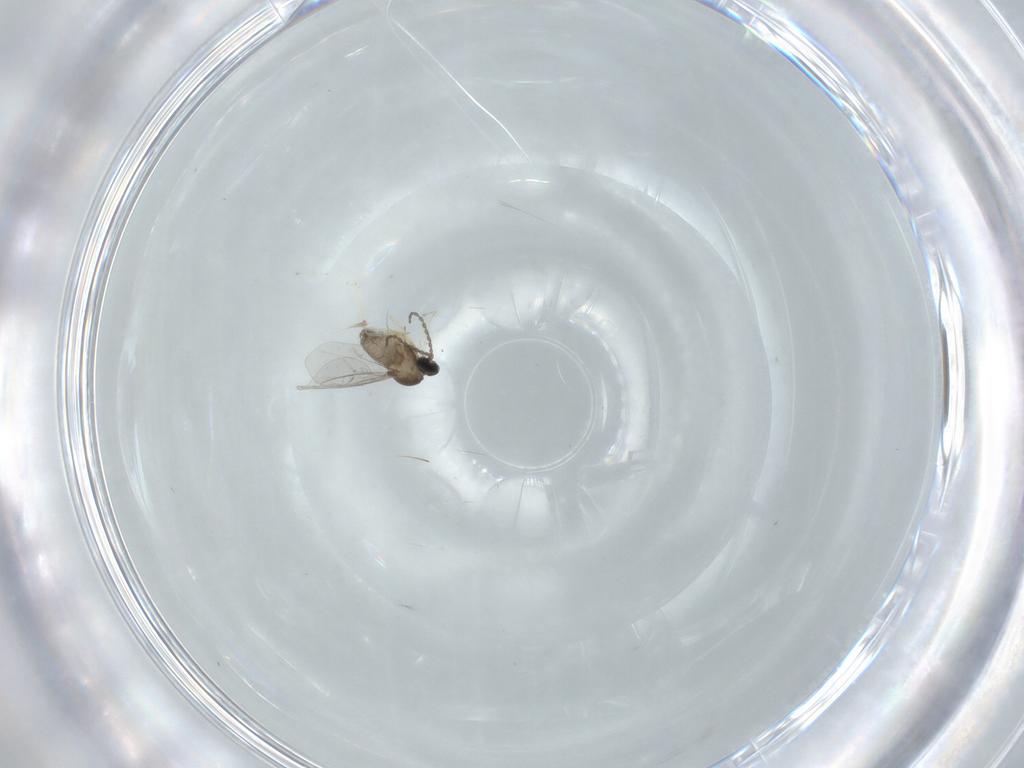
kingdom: Animalia
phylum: Arthropoda
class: Insecta
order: Diptera
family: Cecidomyiidae
